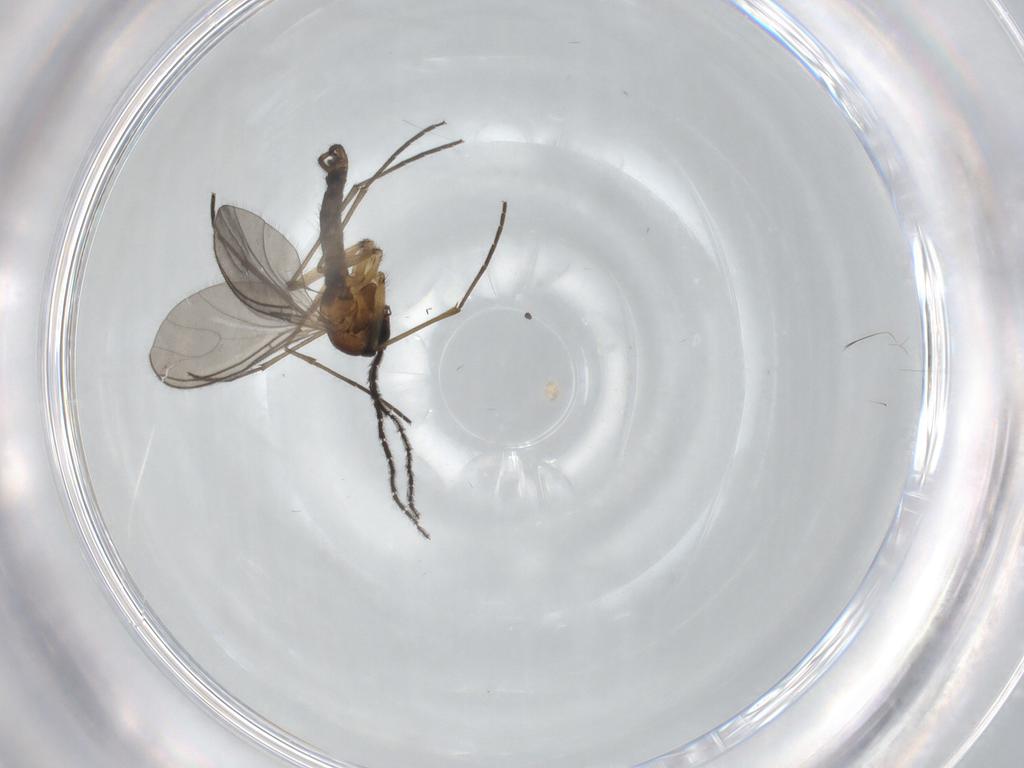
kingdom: Animalia
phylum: Arthropoda
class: Insecta
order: Diptera
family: Sciaridae
